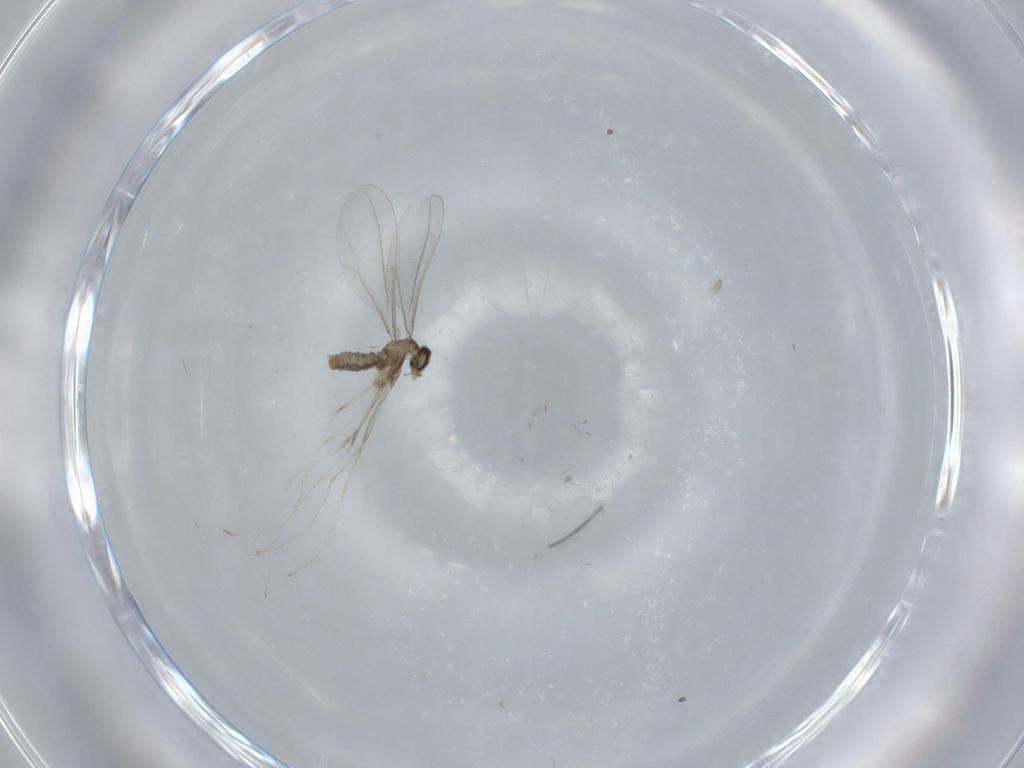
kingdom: Animalia
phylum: Arthropoda
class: Insecta
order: Diptera
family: Cecidomyiidae
